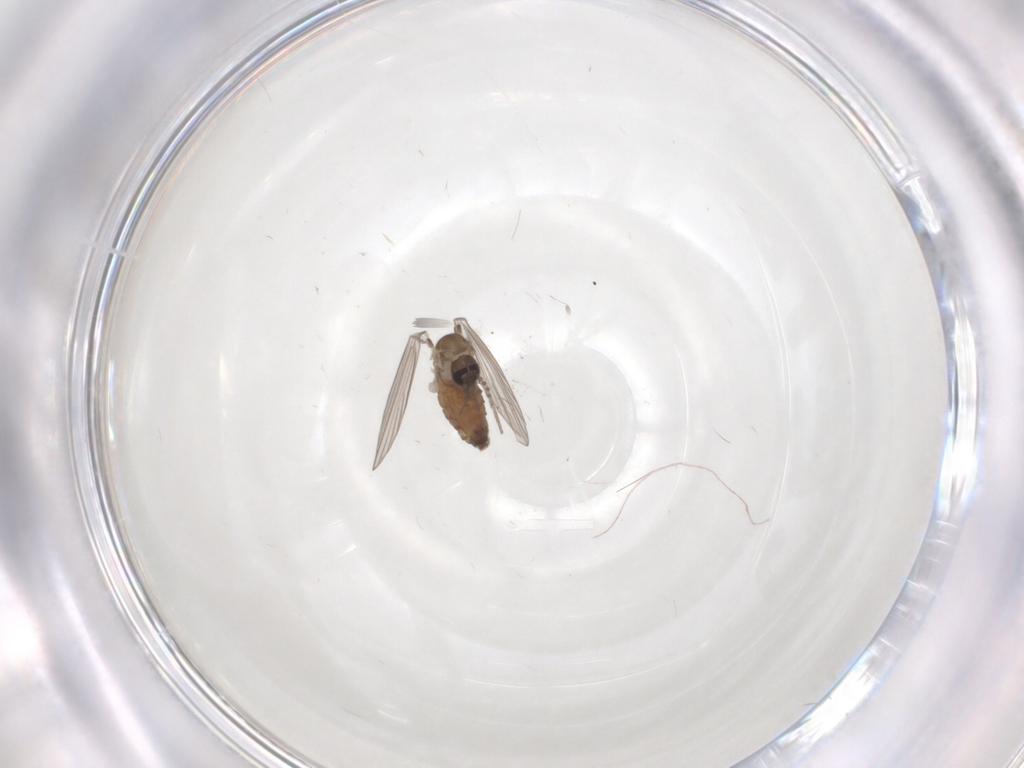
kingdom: Animalia
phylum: Arthropoda
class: Insecta
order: Diptera
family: Psychodidae
